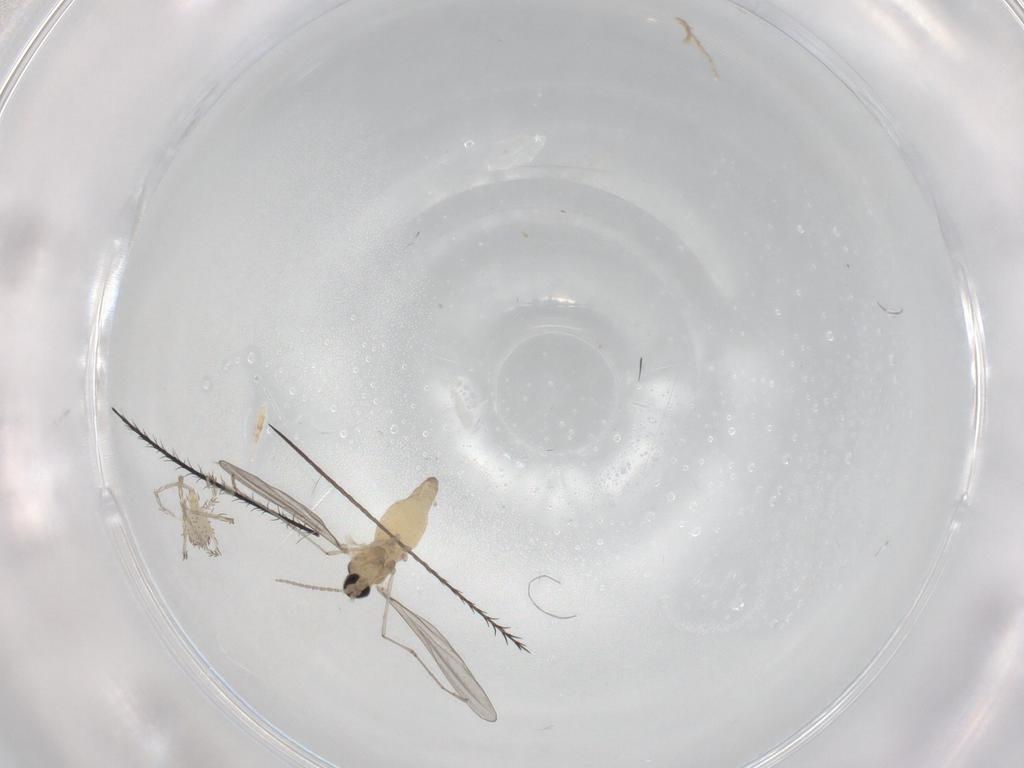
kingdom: Animalia
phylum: Arthropoda
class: Insecta
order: Diptera
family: Cecidomyiidae
